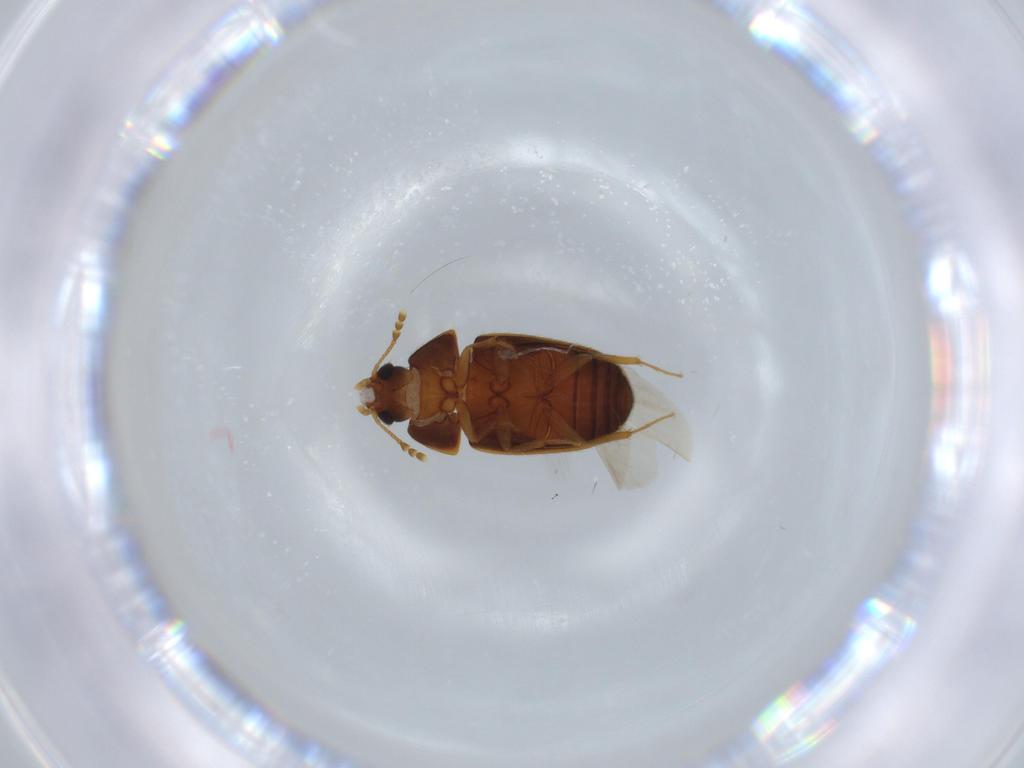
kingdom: Animalia
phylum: Arthropoda
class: Insecta
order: Coleoptera
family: Mycetophagidae
